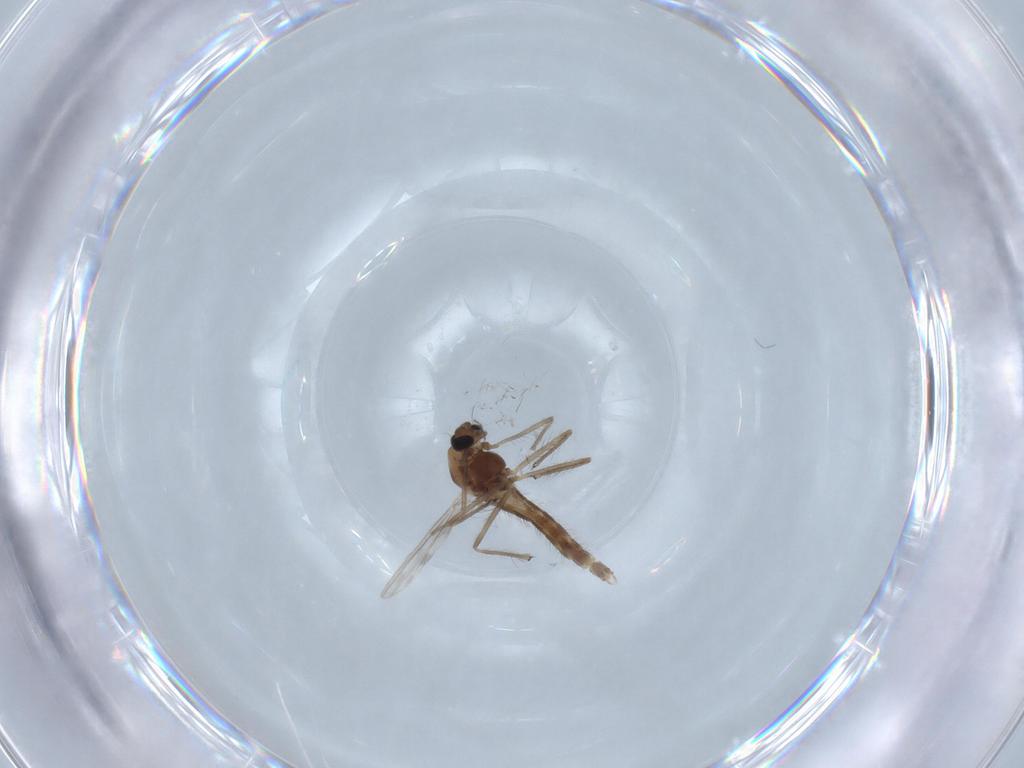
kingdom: Animalia
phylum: Arthropoda
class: Insecta
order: Diptera
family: Chironomidae
